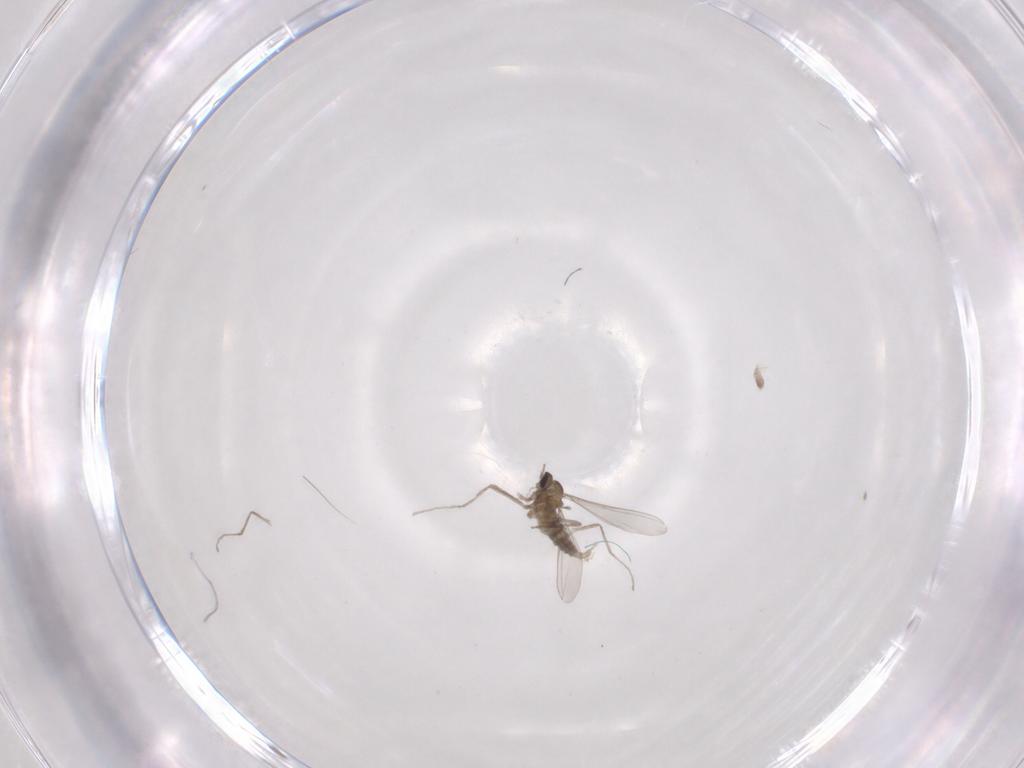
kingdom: Animalia
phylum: Arthropoda
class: Insecta
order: Diptera
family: Cecidomyiidae
